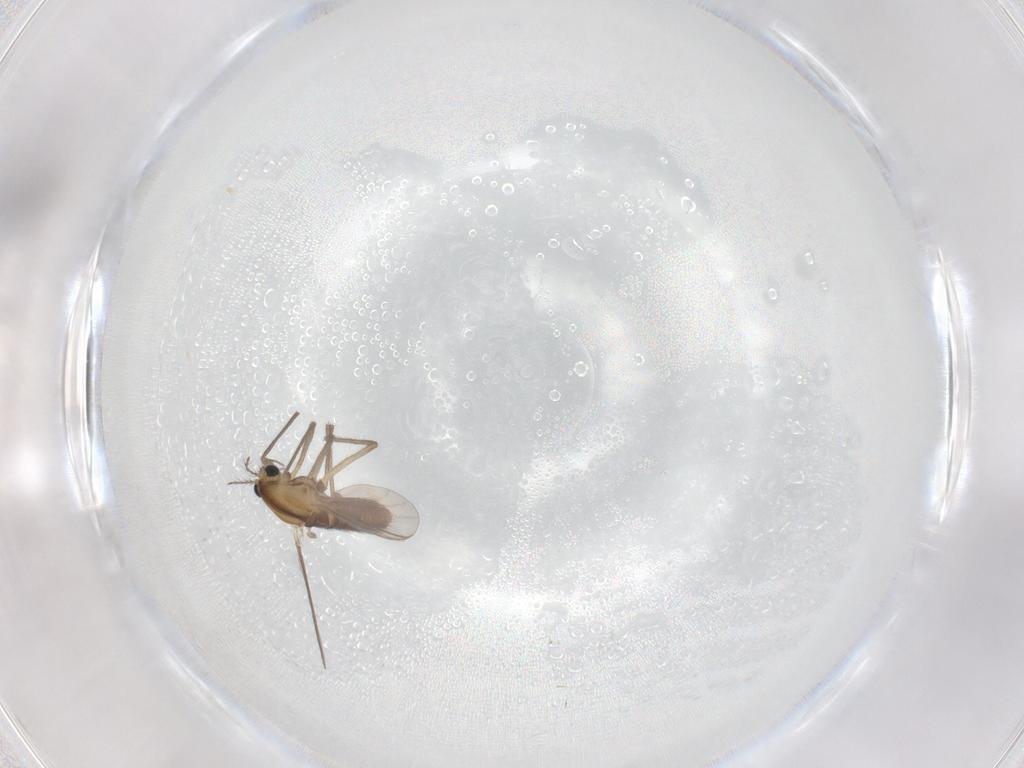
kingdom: Animalia
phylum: Arthropoda
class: Insecta
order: Diptera
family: Chironomidae
